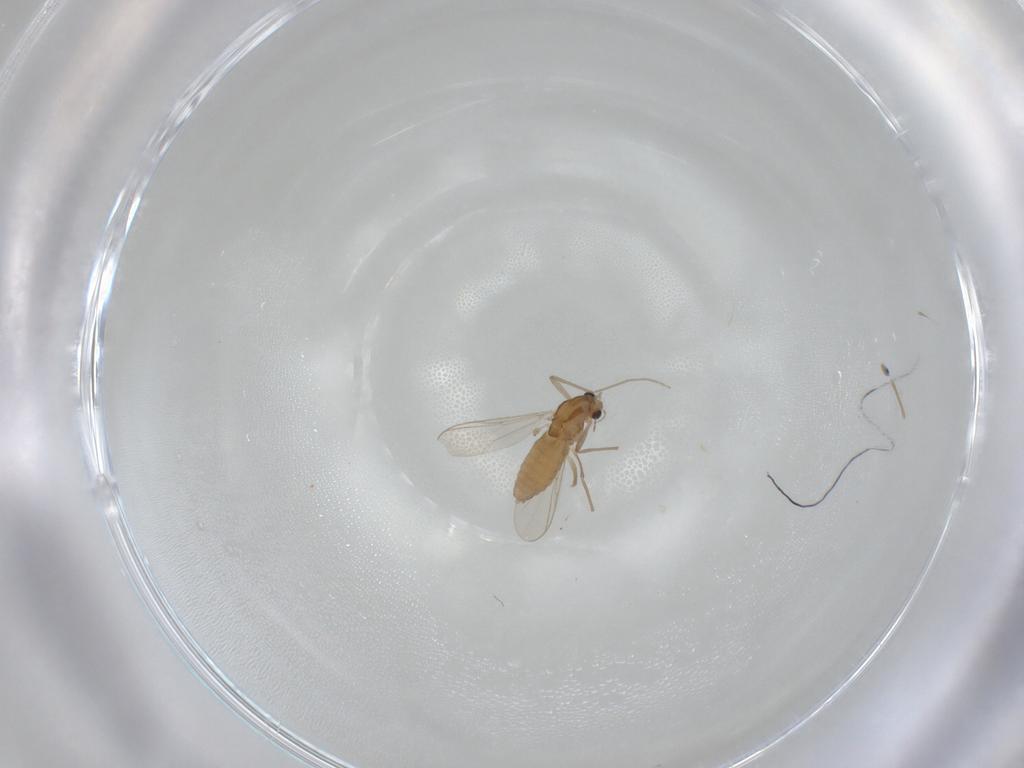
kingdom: Animalia
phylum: Arthropoda
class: Insecta
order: Diptera
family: Chironomidae
